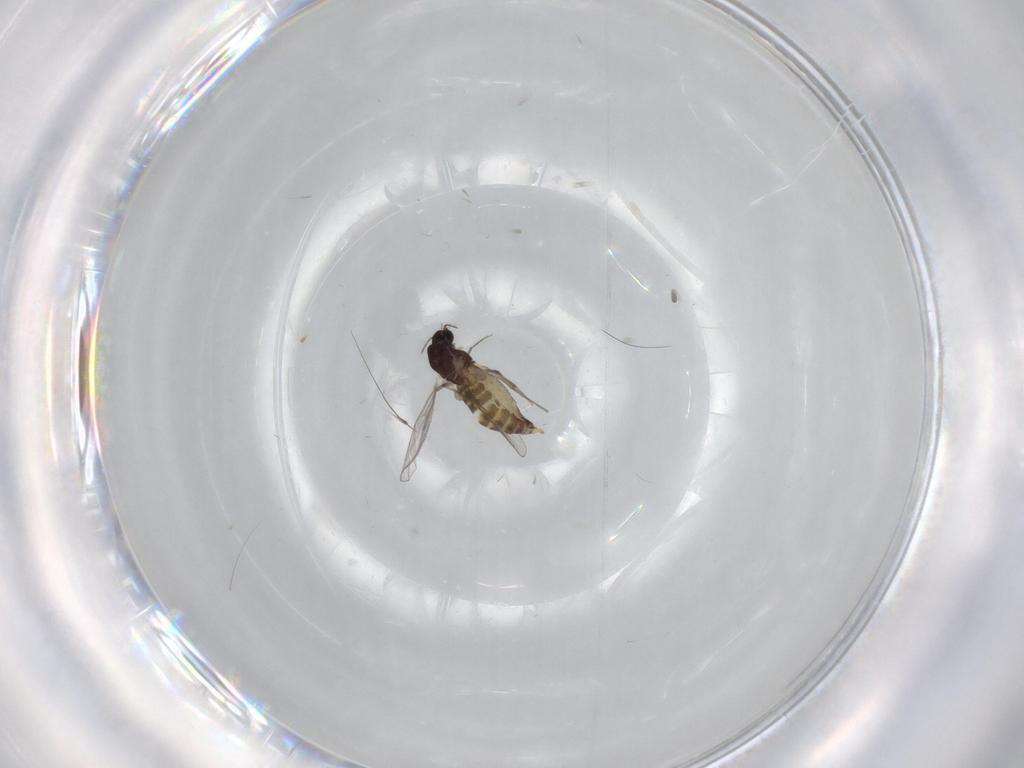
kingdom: Animalia
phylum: Arthropoda
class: Insecta
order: Diptera
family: Chironomidae
